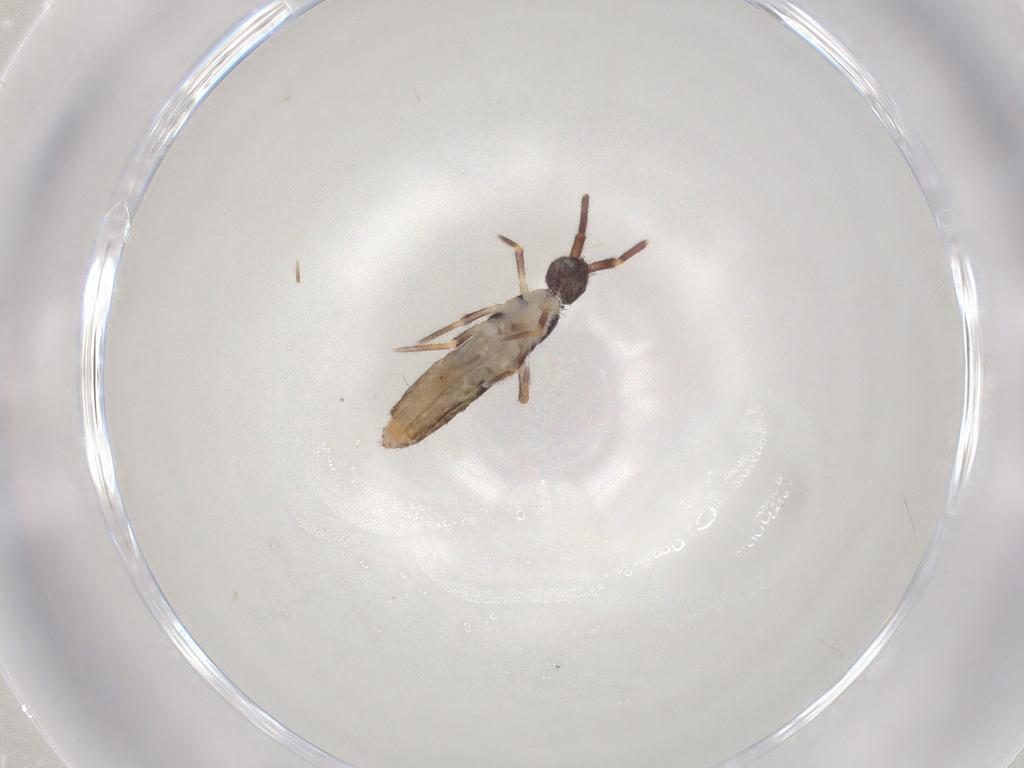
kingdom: Animalia
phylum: Arthropoda
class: Collembola
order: Entomobryomorpha
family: Entomobryidae
